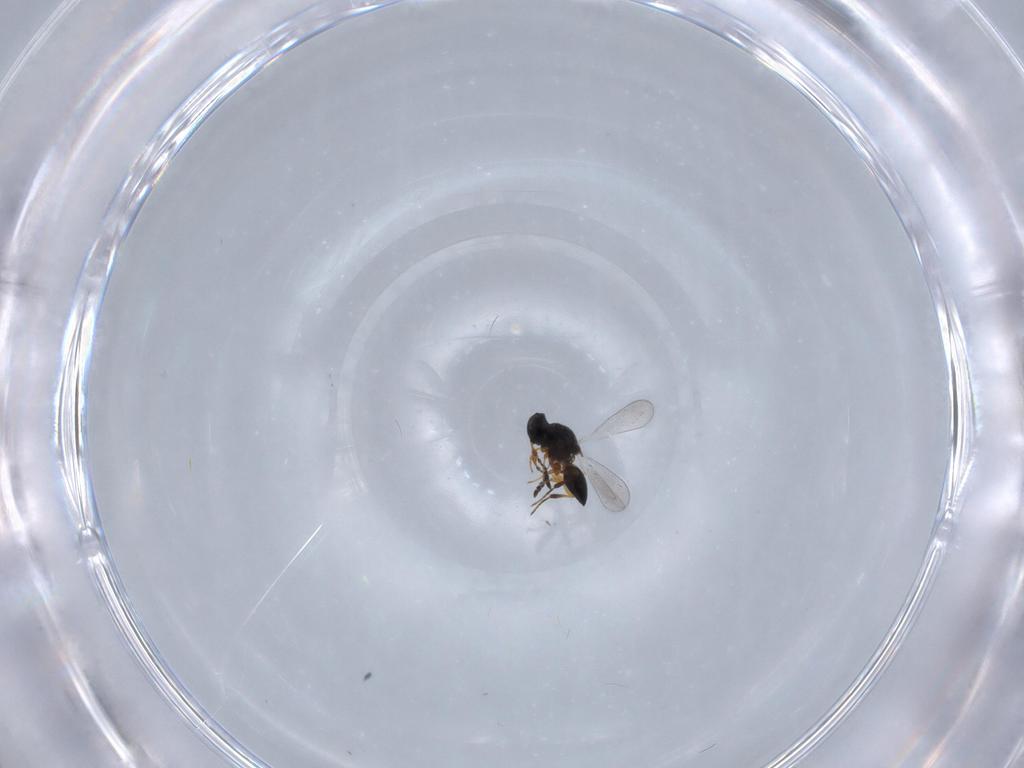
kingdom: Animalia
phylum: Arthropoda
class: Insecta
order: Hymenoptera
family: Platygastridae
